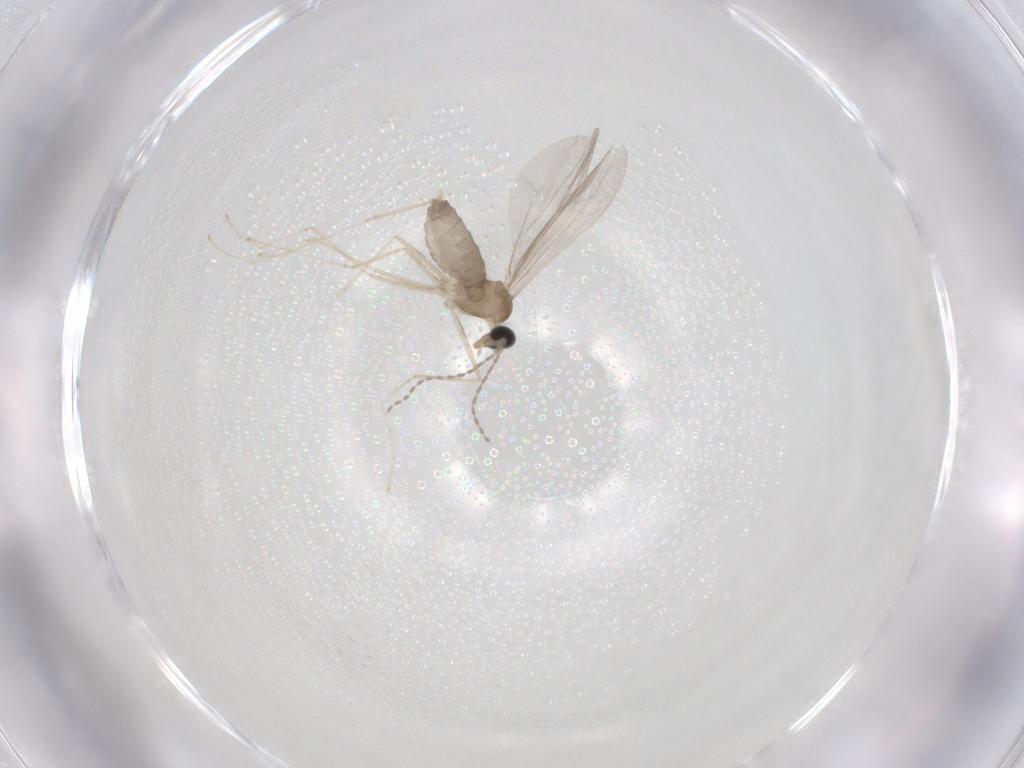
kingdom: Animalia
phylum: Arthropoda
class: Insecta
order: Diptera
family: Cecidomyiidae
